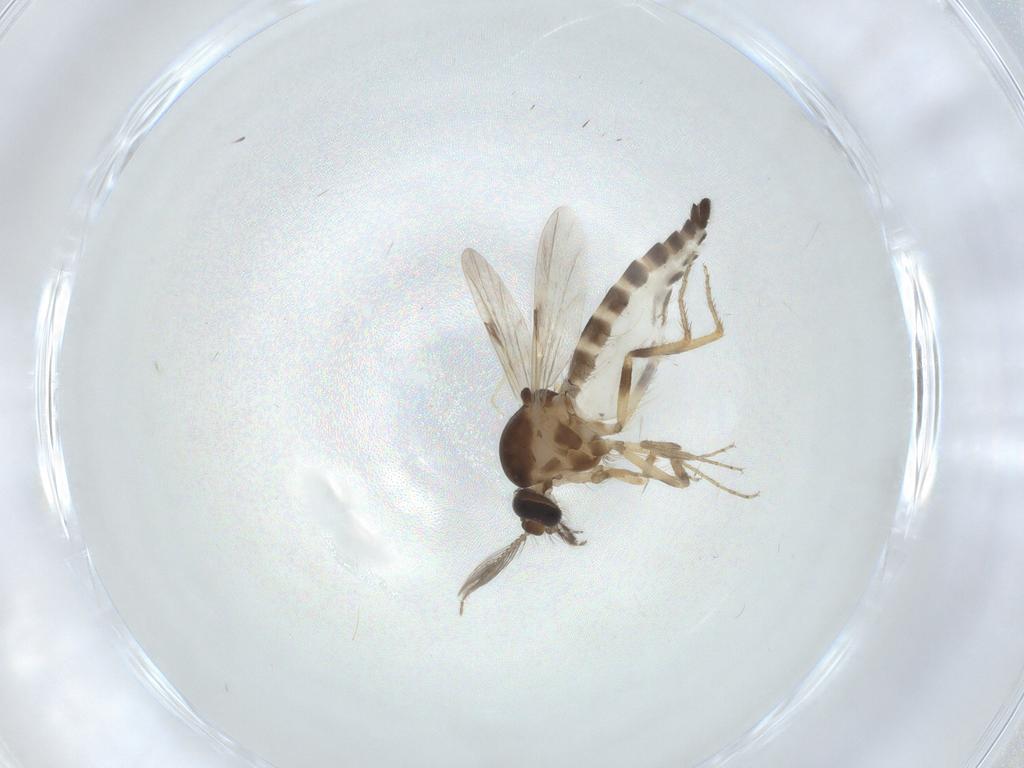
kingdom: Animalia
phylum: Arthropoda
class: Insecta
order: Diptera
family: Ceratopogonidae
